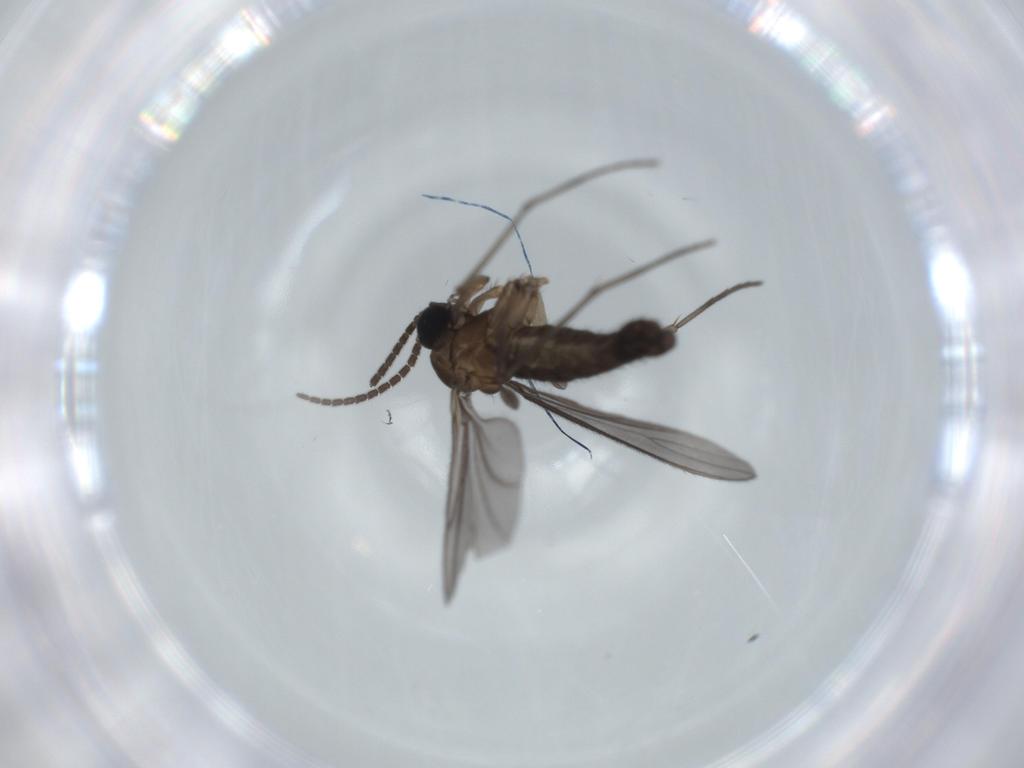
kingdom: Animalia
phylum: Arthropoda
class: Insecta
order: Diptera
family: Sciaridae
